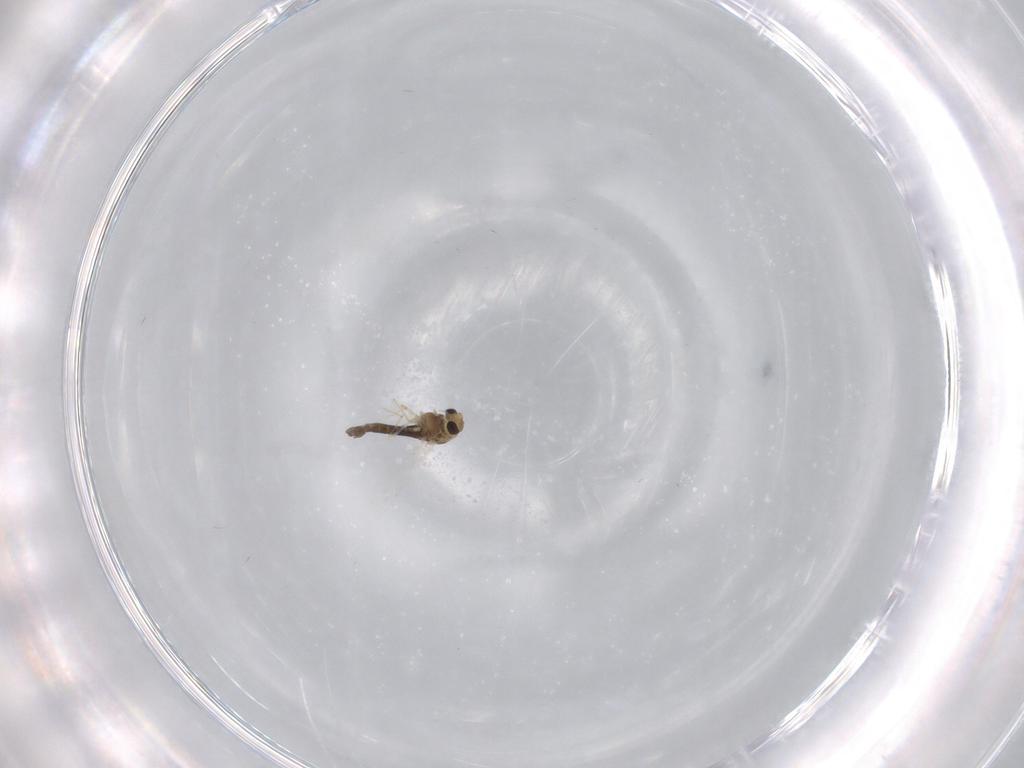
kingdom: Animalia
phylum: Arthropoda
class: Insecta
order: Diptera
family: Chironomidae
